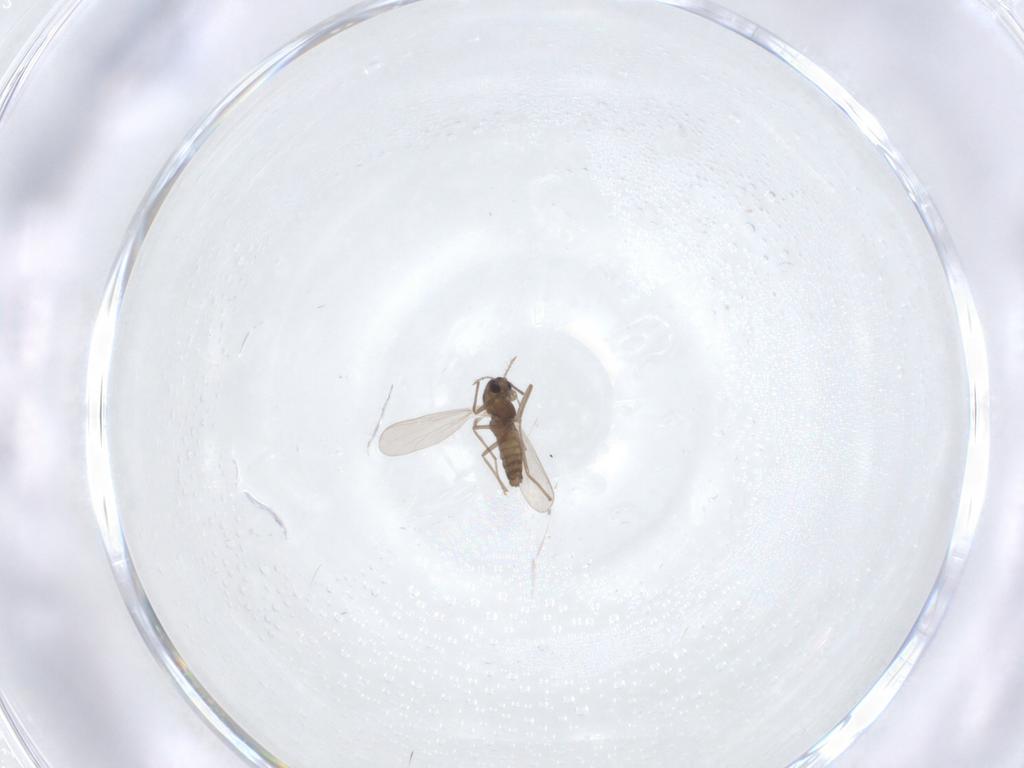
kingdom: Animalia
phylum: Arthropoda
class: Insecta
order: Diptera
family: Chironomidae
